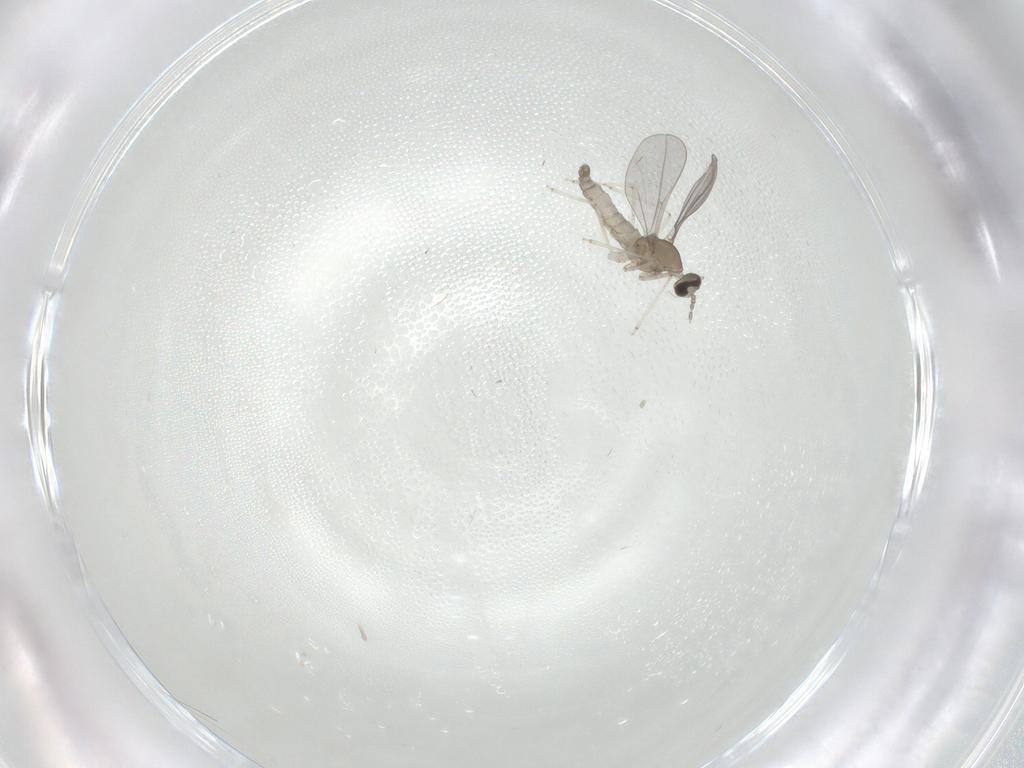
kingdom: Animalia
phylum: Arthropoda
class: Insecta
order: Diptera
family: Cecidomyiidae
